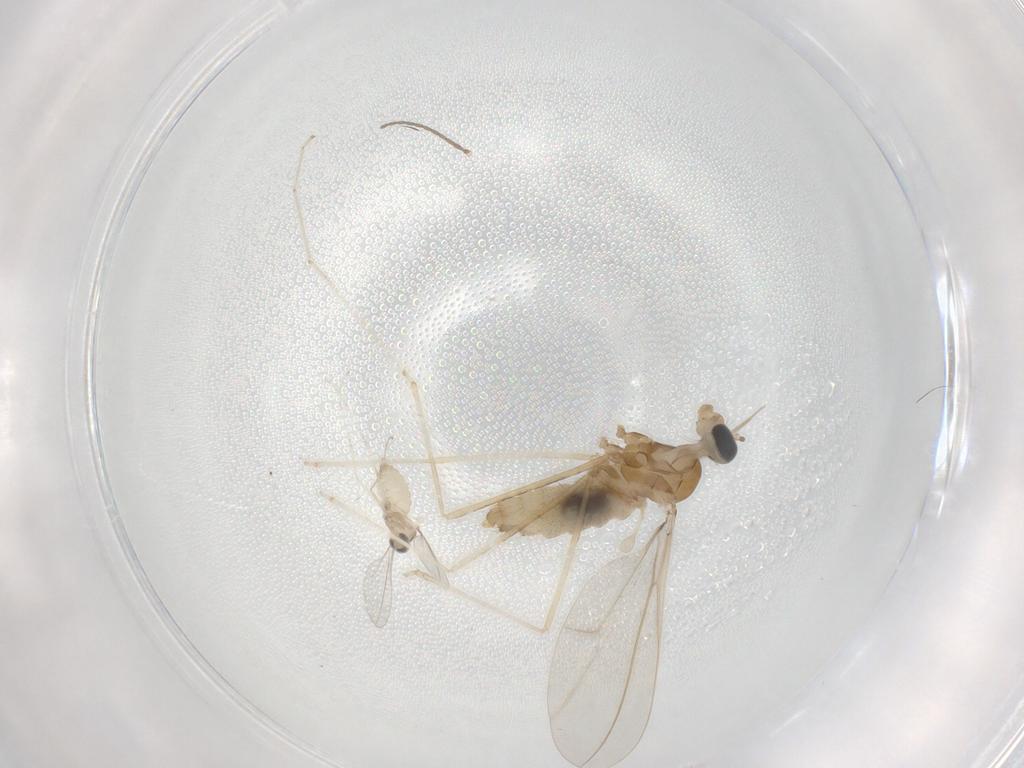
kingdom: Animalia
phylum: Arthropoda
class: Insecta
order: Diptera
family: Cecidomyiidae
